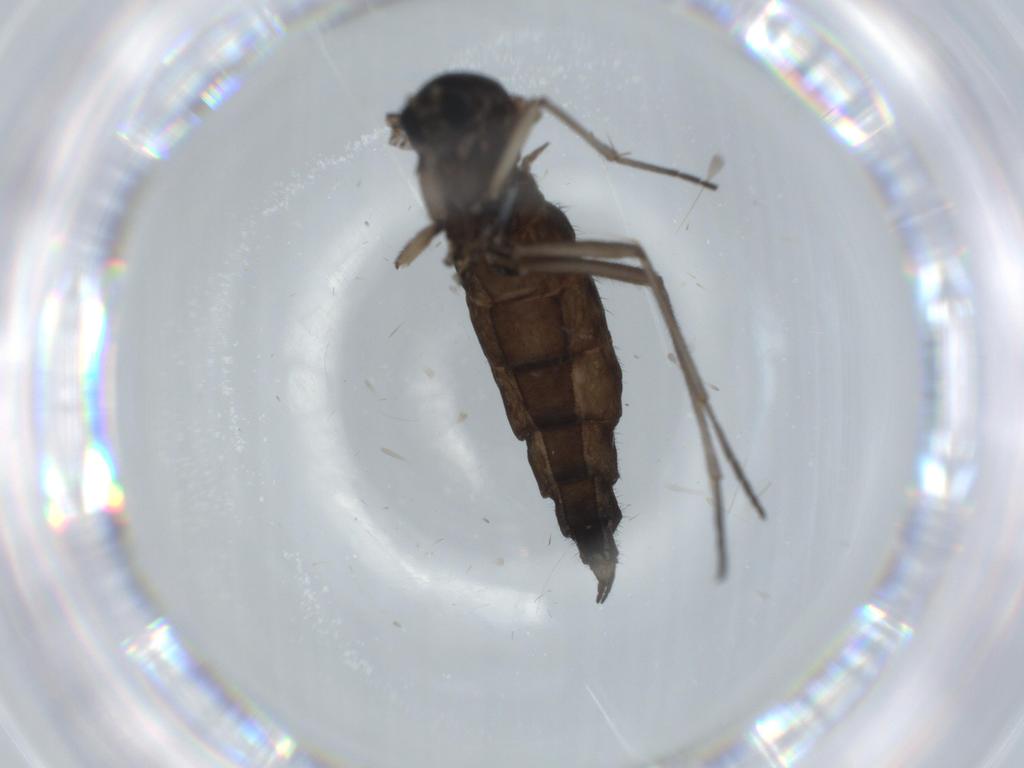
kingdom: Animalia
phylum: Arthropoda
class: Insecta
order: Diptera
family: Sciaridae
